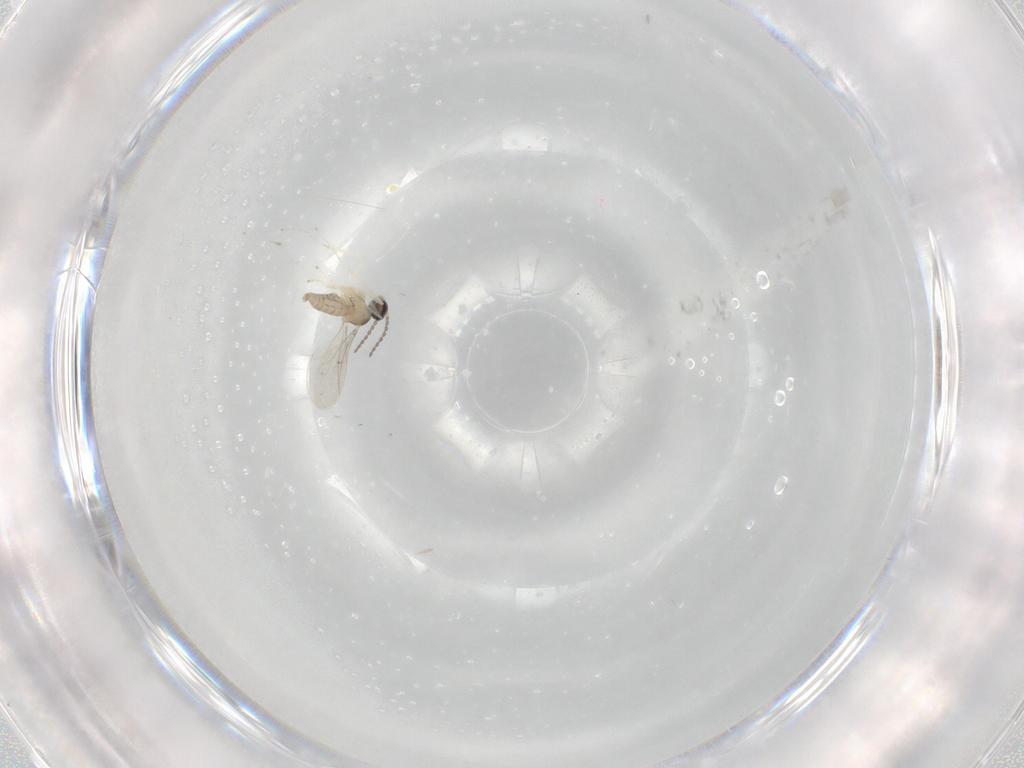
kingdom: Animalia
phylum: Arthropoda
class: Insecta
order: Diptera
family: Cecidomyiidae
